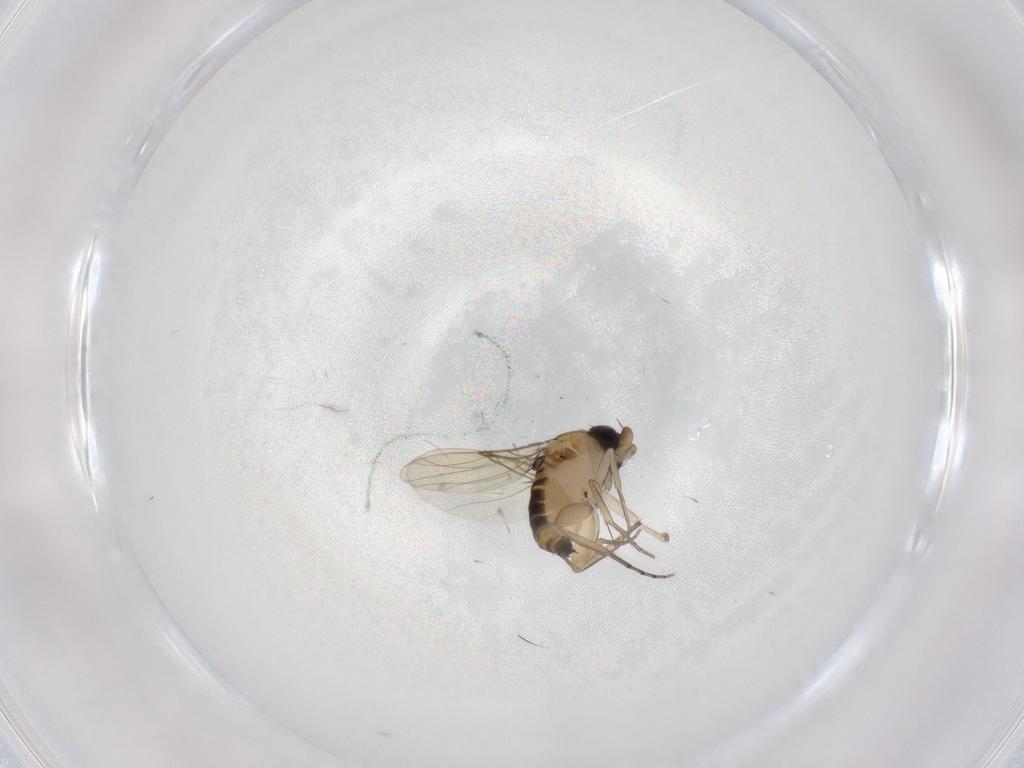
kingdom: Animalia
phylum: Arthropoda
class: Insecta
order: Diptera
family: Phoridae
